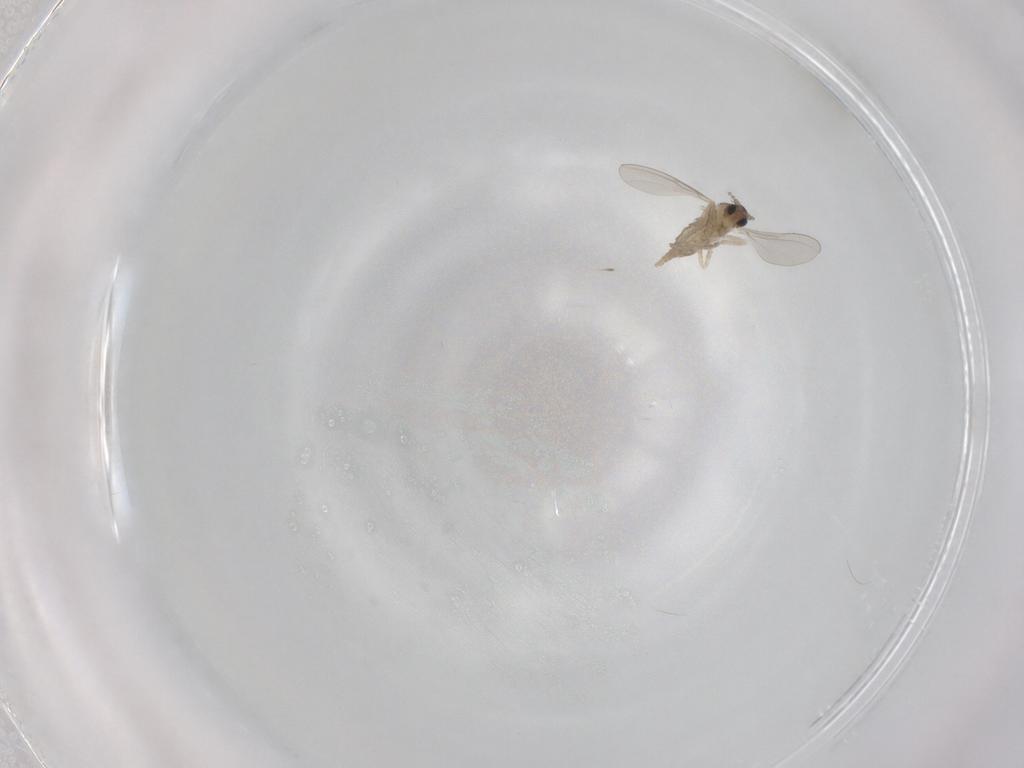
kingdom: Animalia
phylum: Arthropoda
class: Insecta
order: Diptera
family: Cecidomyiidae
